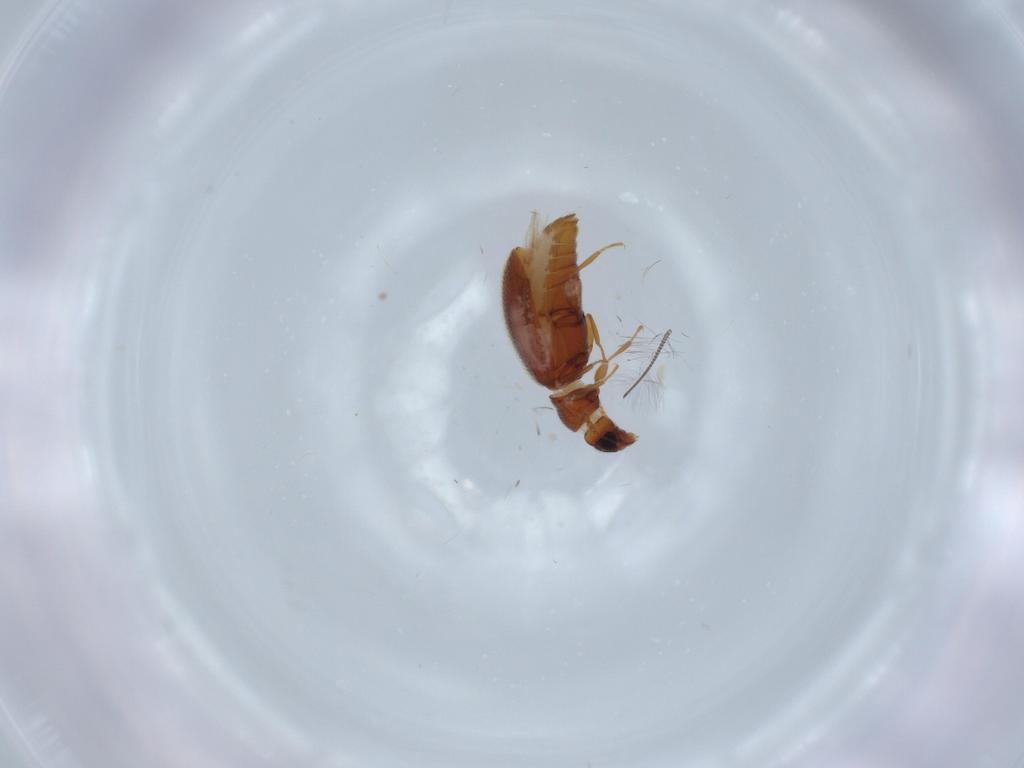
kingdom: Animalia
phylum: Arthropoda
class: Insecta
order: Coleoptera
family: Latridiidae
